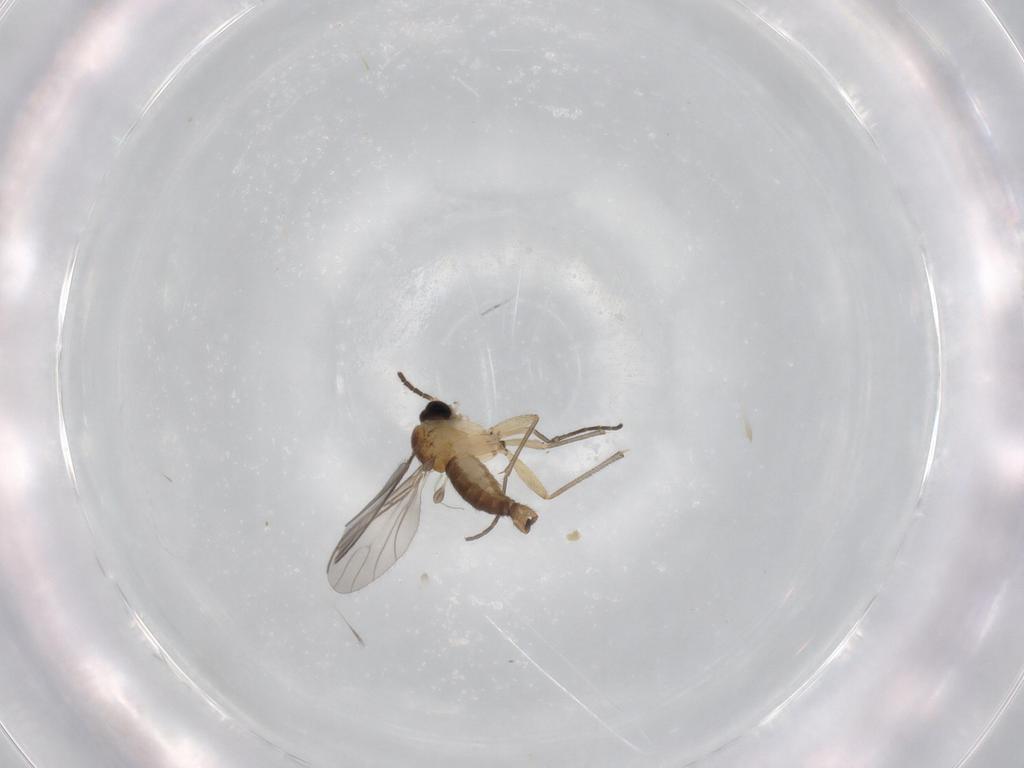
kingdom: Animalia
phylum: Arthropoda
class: Insecta
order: Diptera
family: Sciaridae
